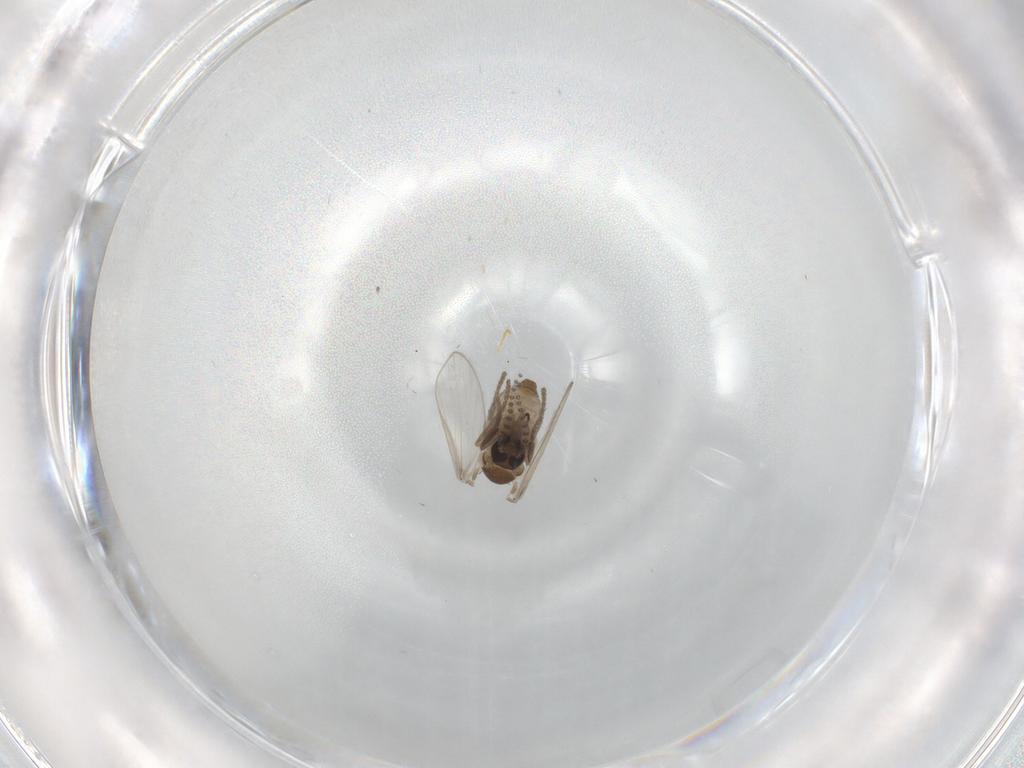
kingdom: Animalia
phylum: Arthropoda
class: Insecta
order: Diptera
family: Psychodidae
